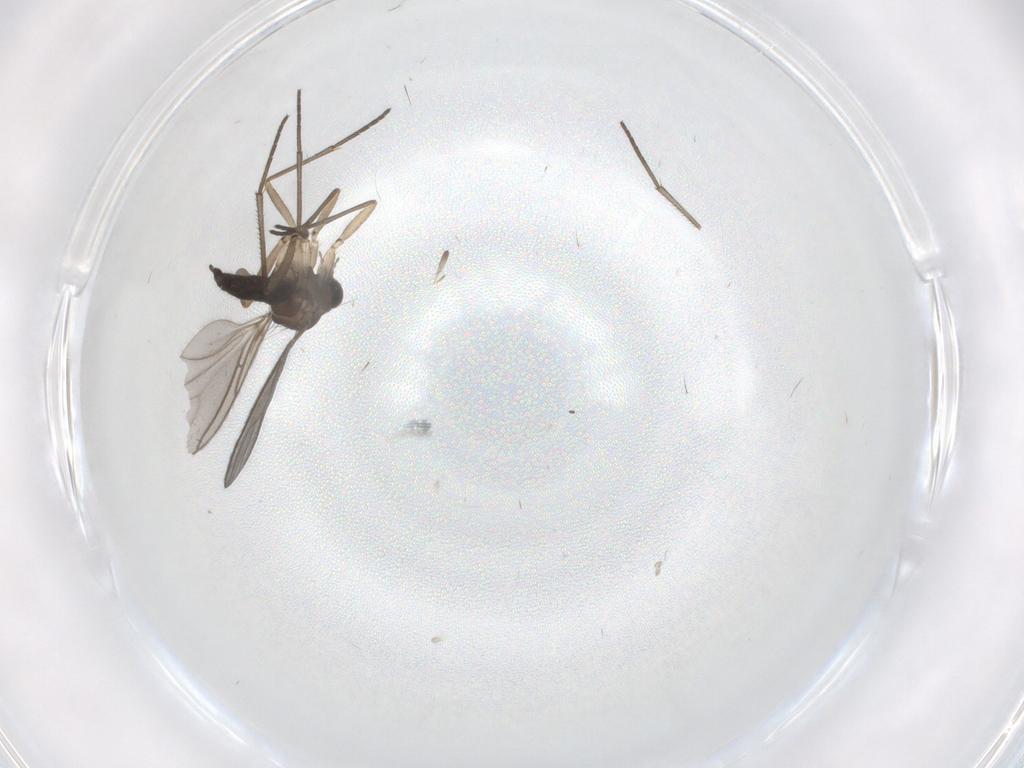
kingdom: Animalia
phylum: Arthropoda
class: Insecta
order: Diptera
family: Sciaridae
